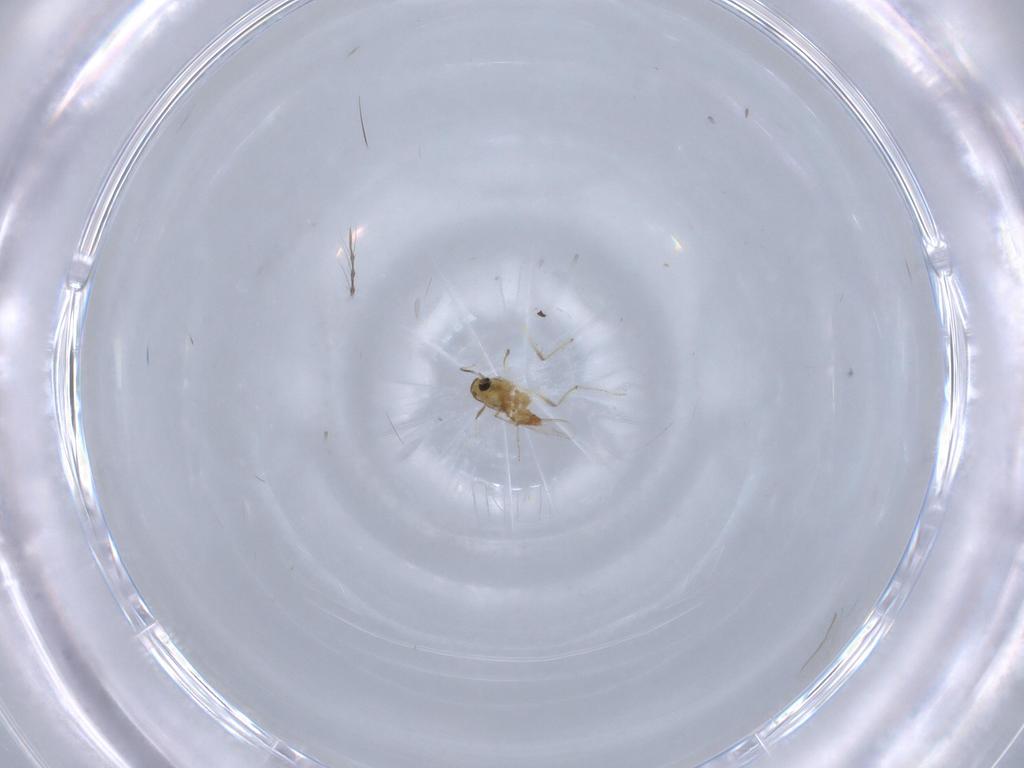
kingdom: Animalia
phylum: Arthropoda
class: Insecta
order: Diptera
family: Chironomidae
